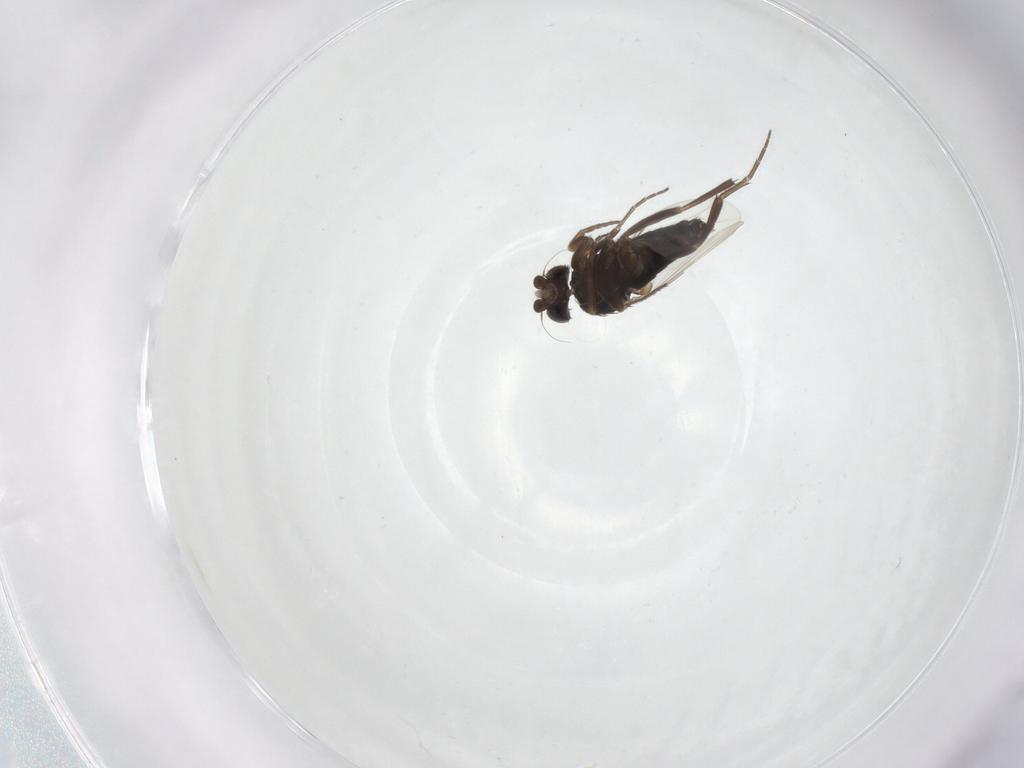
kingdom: Animalia
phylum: Arthropoda
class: Insecta
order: Diptera
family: Phoridae
